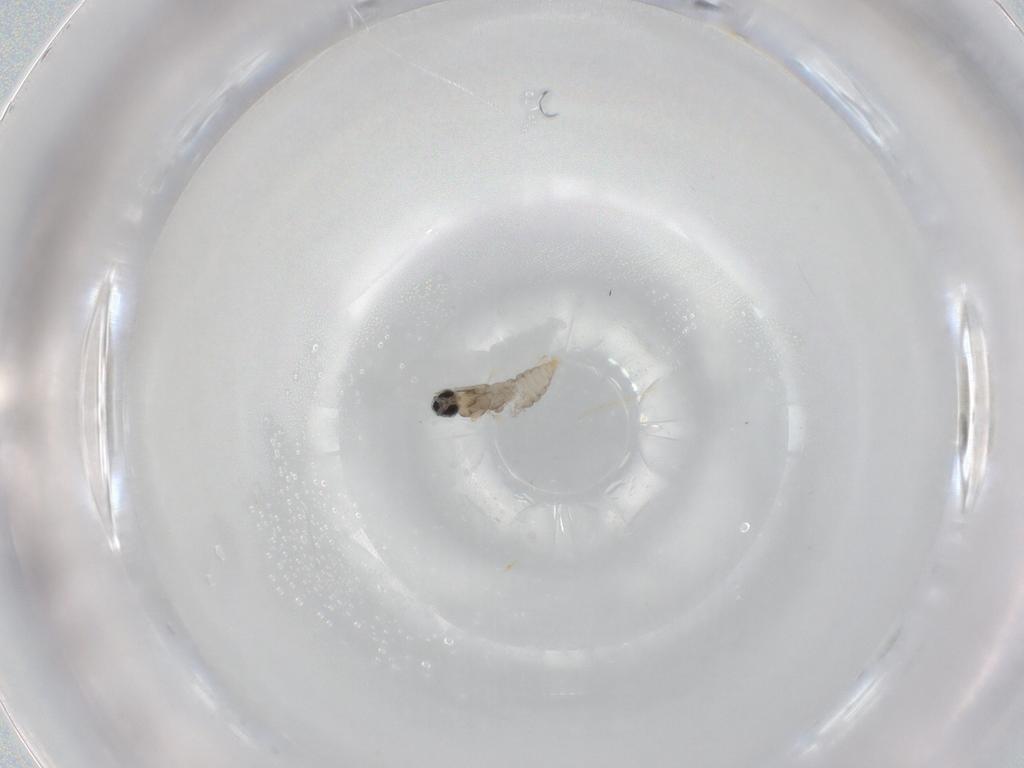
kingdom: Animalia
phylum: Arthropoda
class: Insecta
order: Diptera
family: Cecidomyiidae
